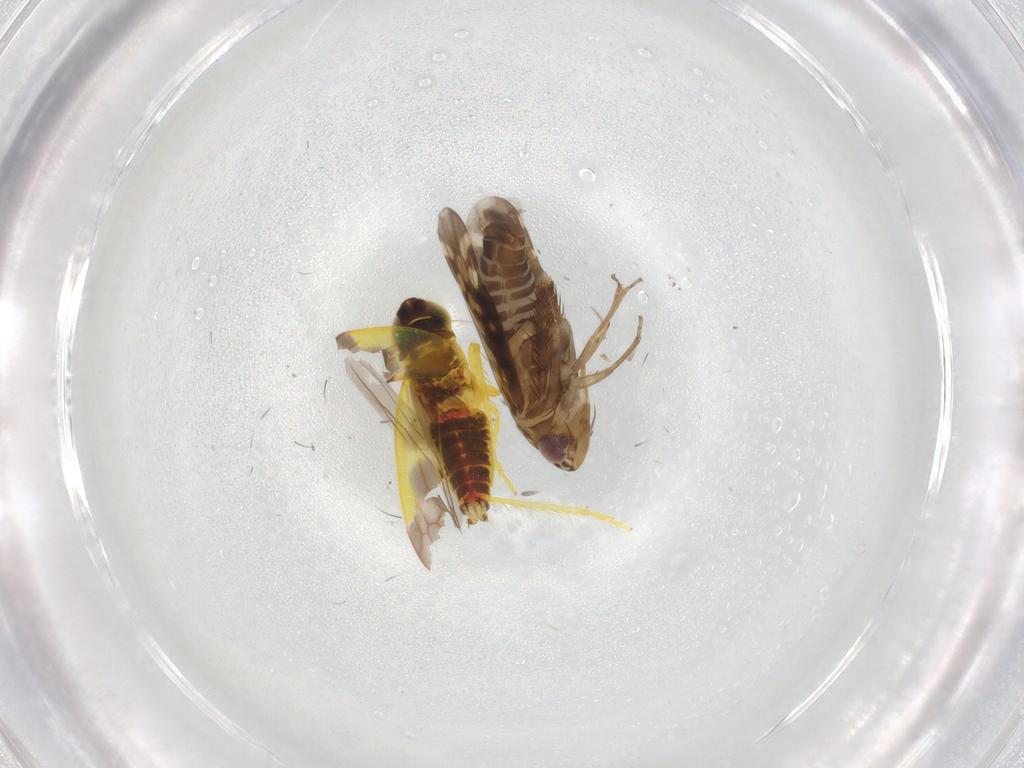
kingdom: Animalia
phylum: Arthropoda
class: Insecta
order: Hemiptera
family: Cicadellidae
